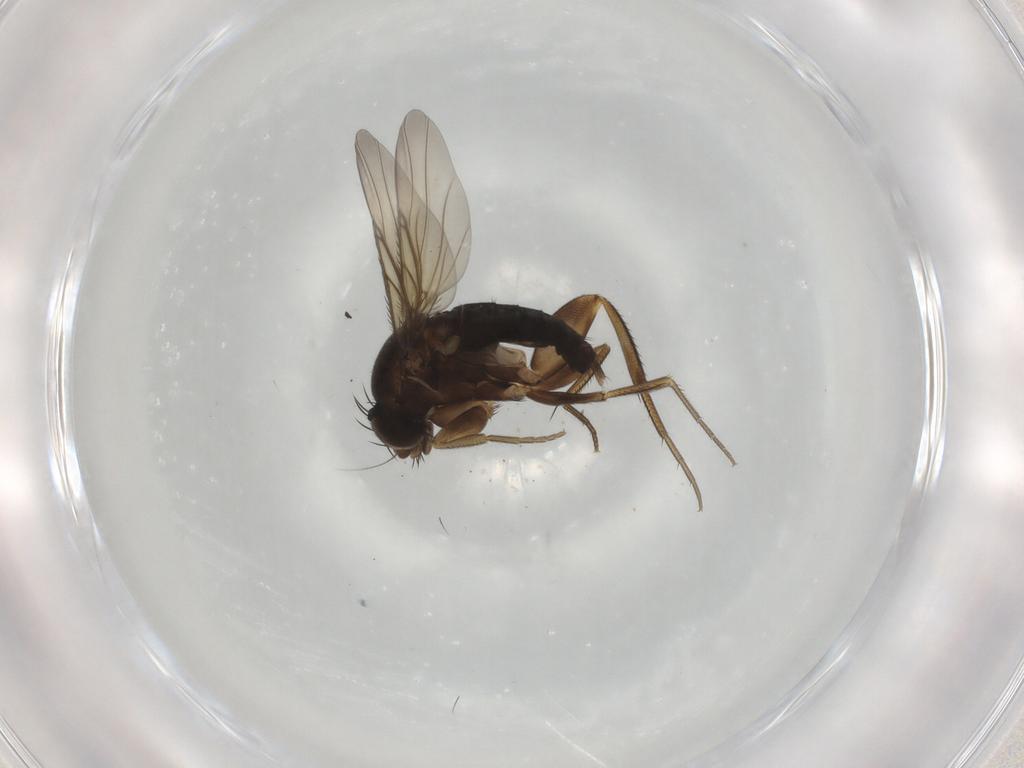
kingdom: Animalia
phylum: Arthropoda
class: Insecta
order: Diptera
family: Phoridae
